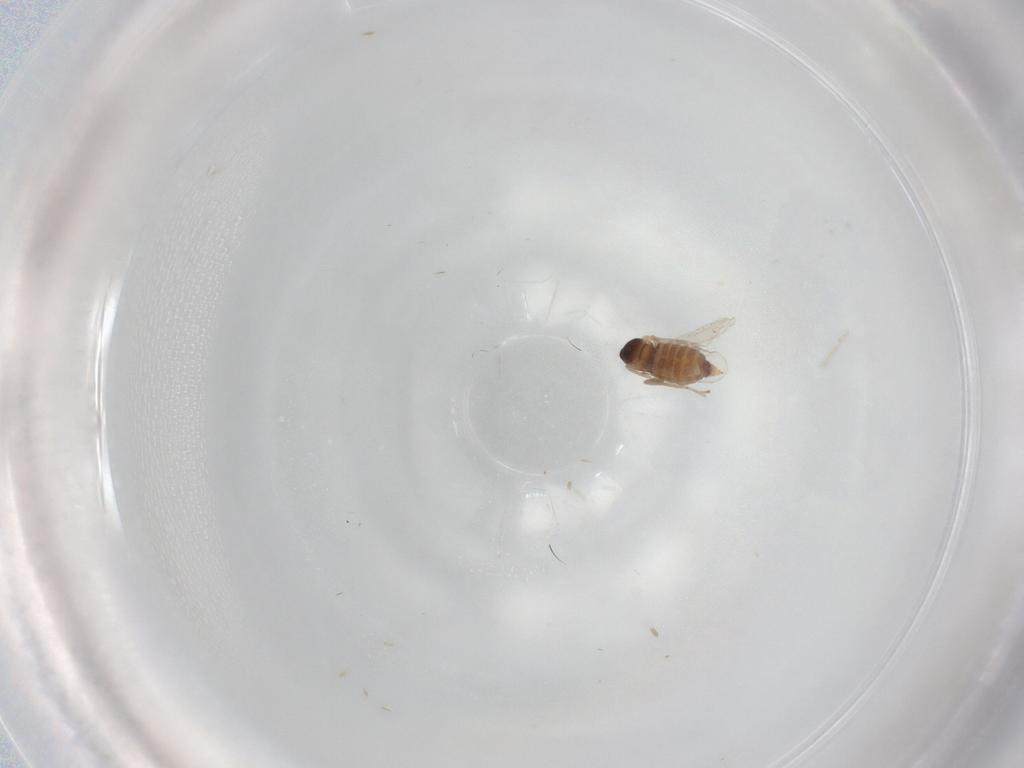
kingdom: Animalia
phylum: Arthropoda
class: Insecta
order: Diptera
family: Cecidomyiidae
